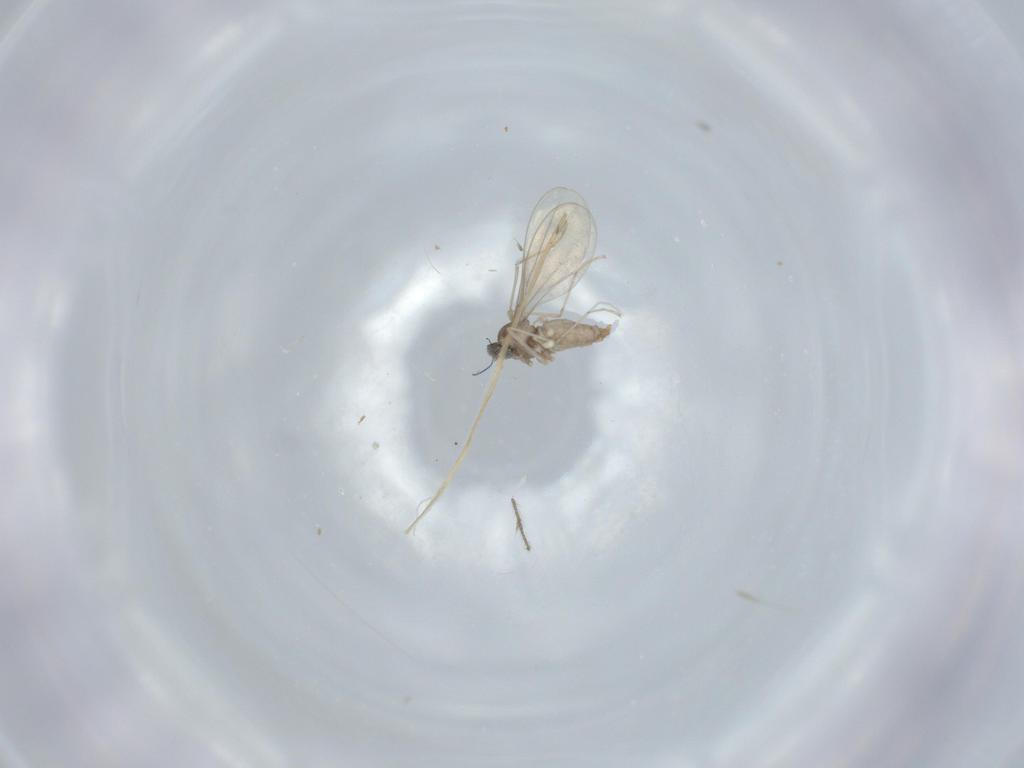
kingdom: Animalia
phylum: Arthropoda
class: Insecta
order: Diptera
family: Cecidomyiidae
